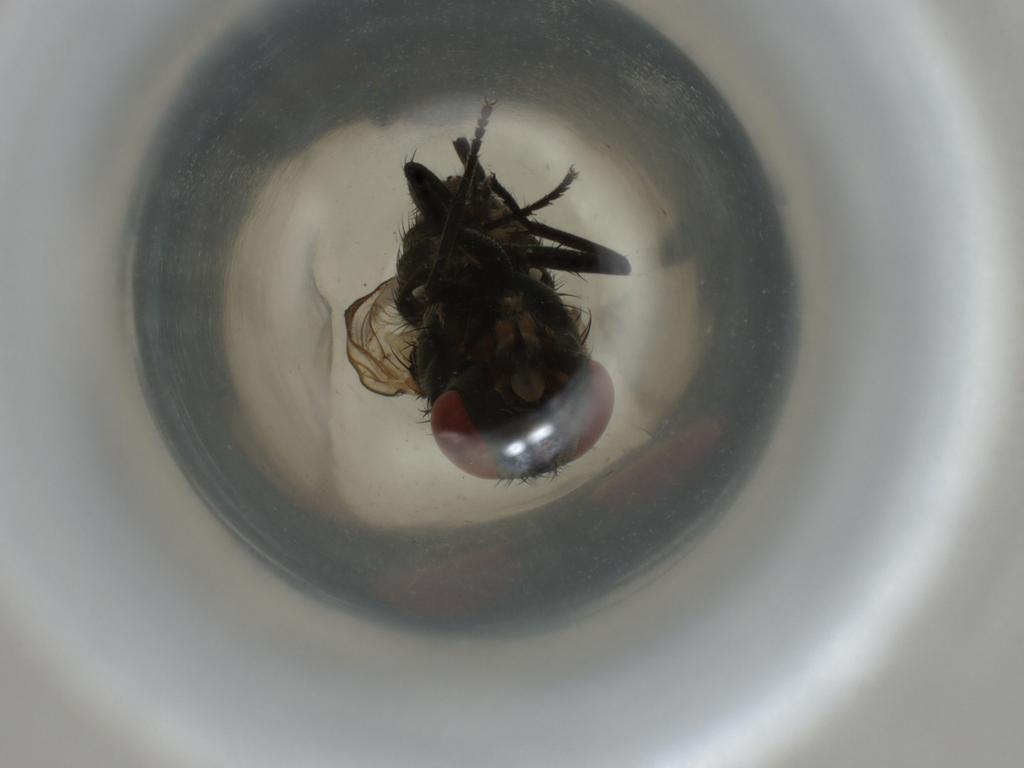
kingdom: Animalia
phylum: Arthropoda
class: Insecta
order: Diptera
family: Muscidae
